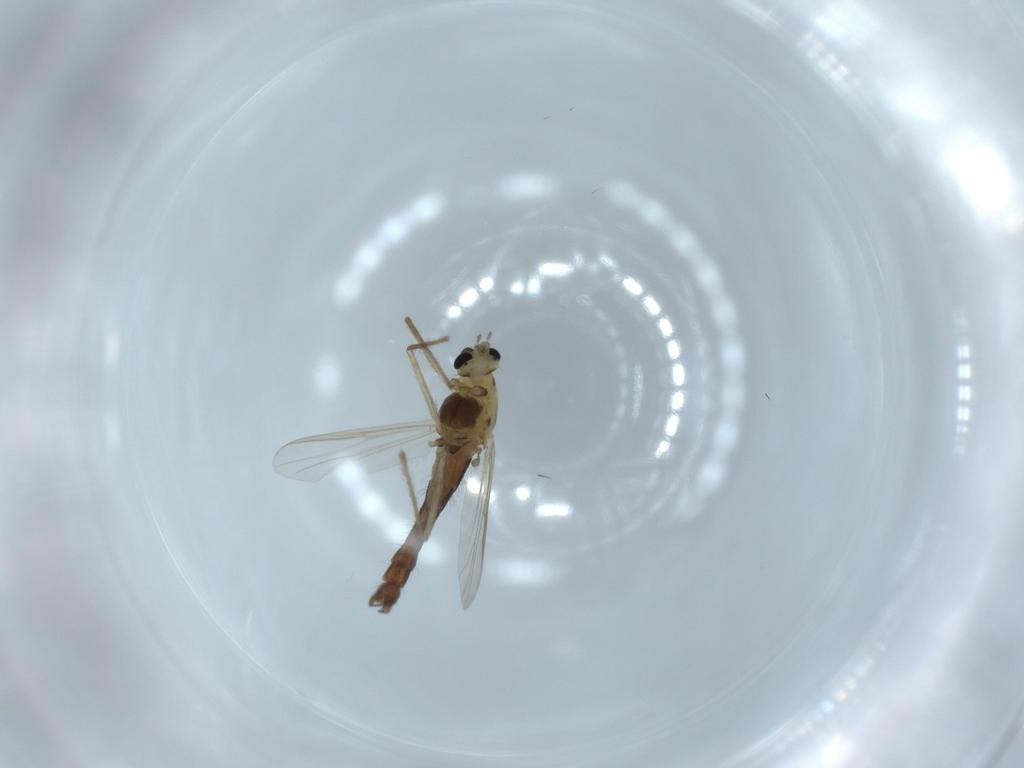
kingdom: Animalia
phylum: Arthropoda
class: Insecta
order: Diptera
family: Chironomidae
